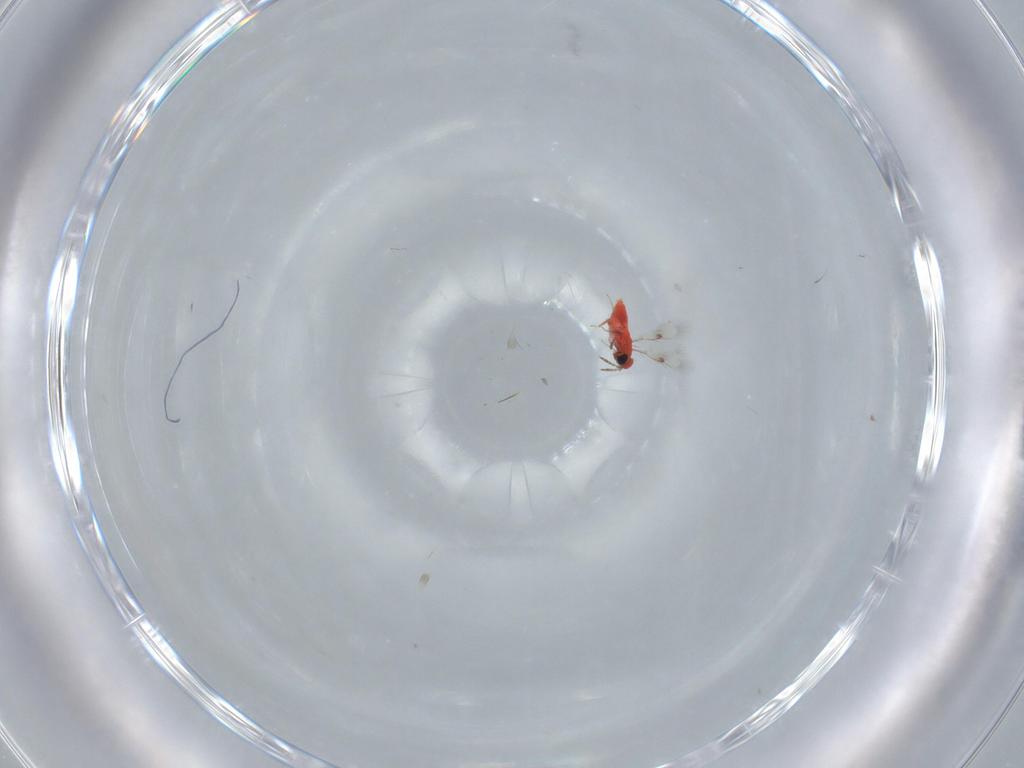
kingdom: Animalia
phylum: Arthropoda
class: Insecta
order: Hymenoptera
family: Trichogrammatidae
